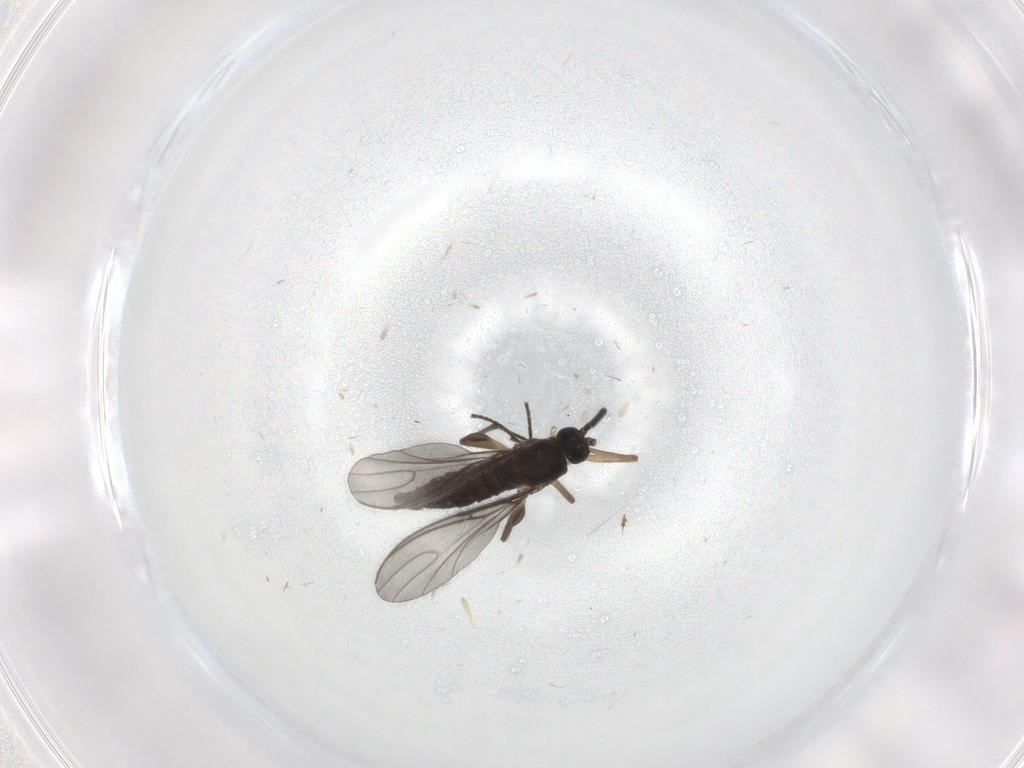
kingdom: Animalia
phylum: Arthropoda
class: Insecta
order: Diptera
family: Sciaridae
